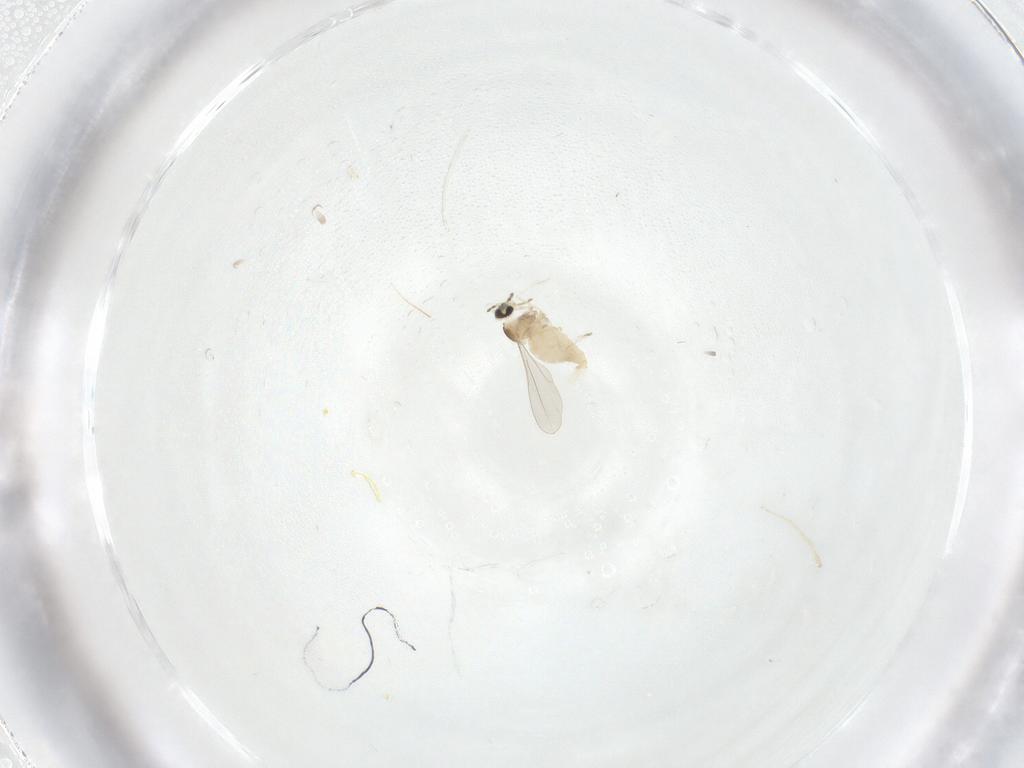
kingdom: Animalia
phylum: Arthropoda
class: Insecta
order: Diptera
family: Cecidomyiidae
